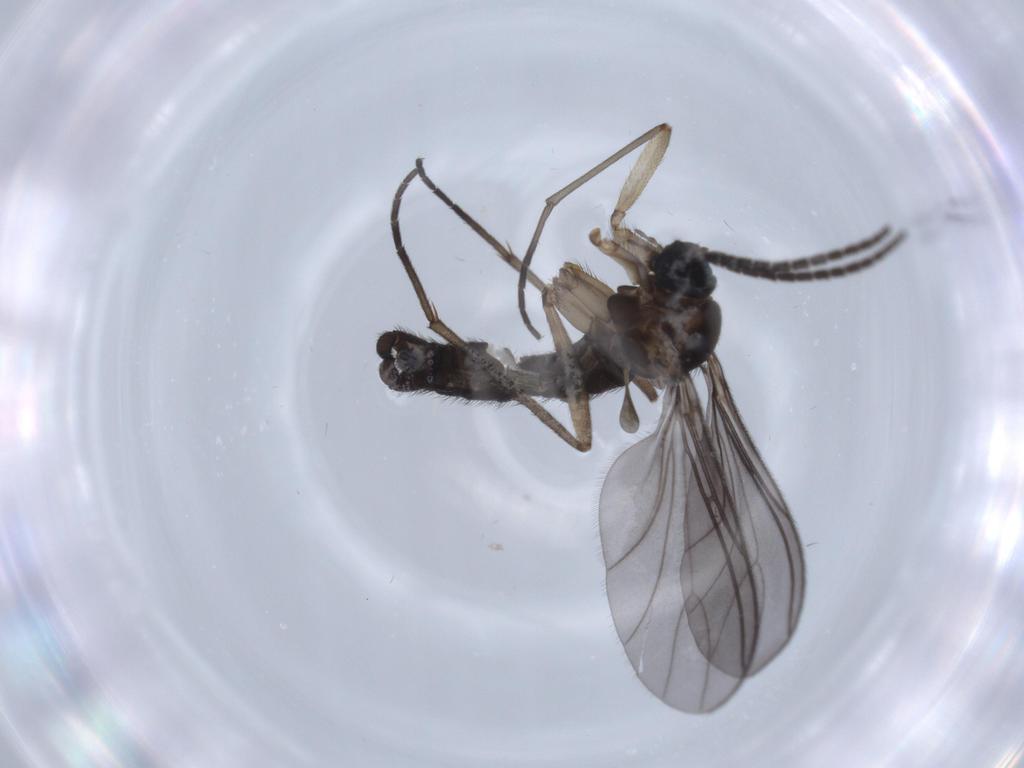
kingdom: Animalia
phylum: Arthropoda
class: Insecta
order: Diptera
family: Sciaridae
